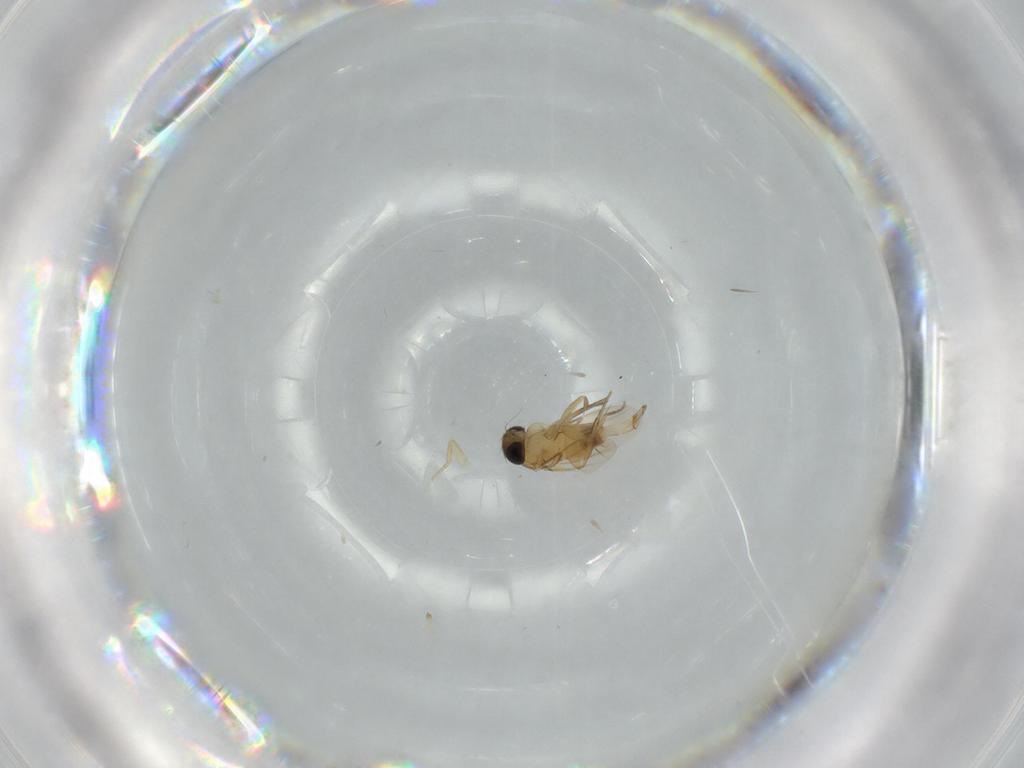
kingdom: Animalia
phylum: Arthropoda
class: Insecta
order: Diptera
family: Phoridae
